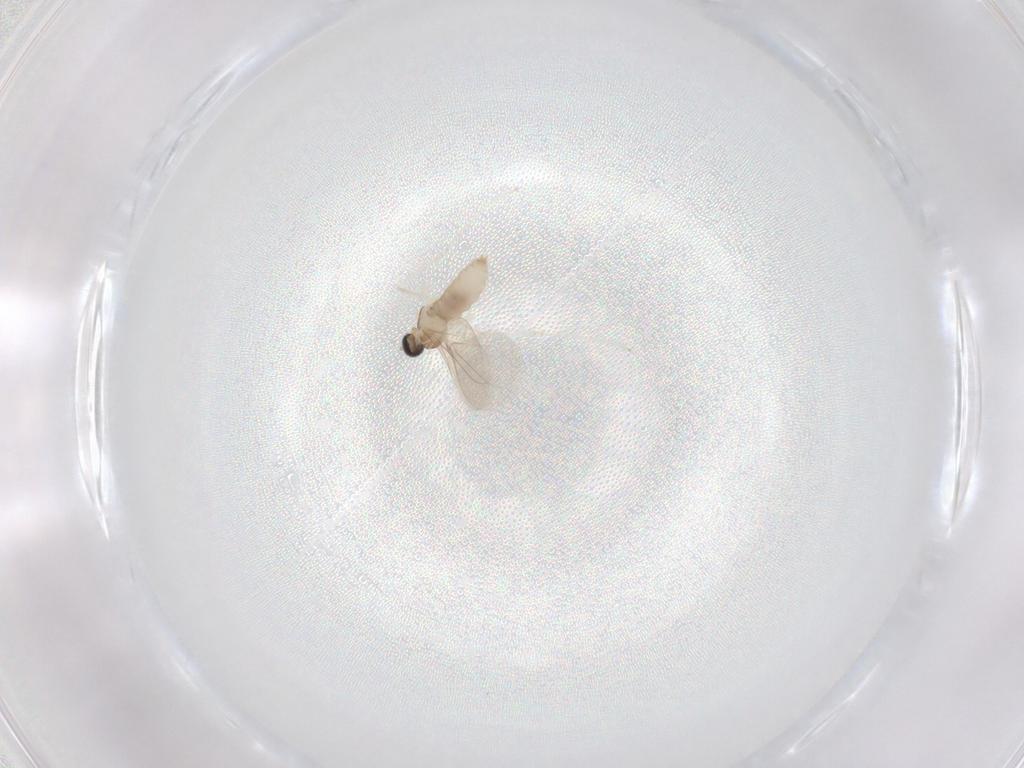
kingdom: Animalia
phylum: Arthropoda
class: Insecta
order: Diptera
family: Cecidomyiidae
